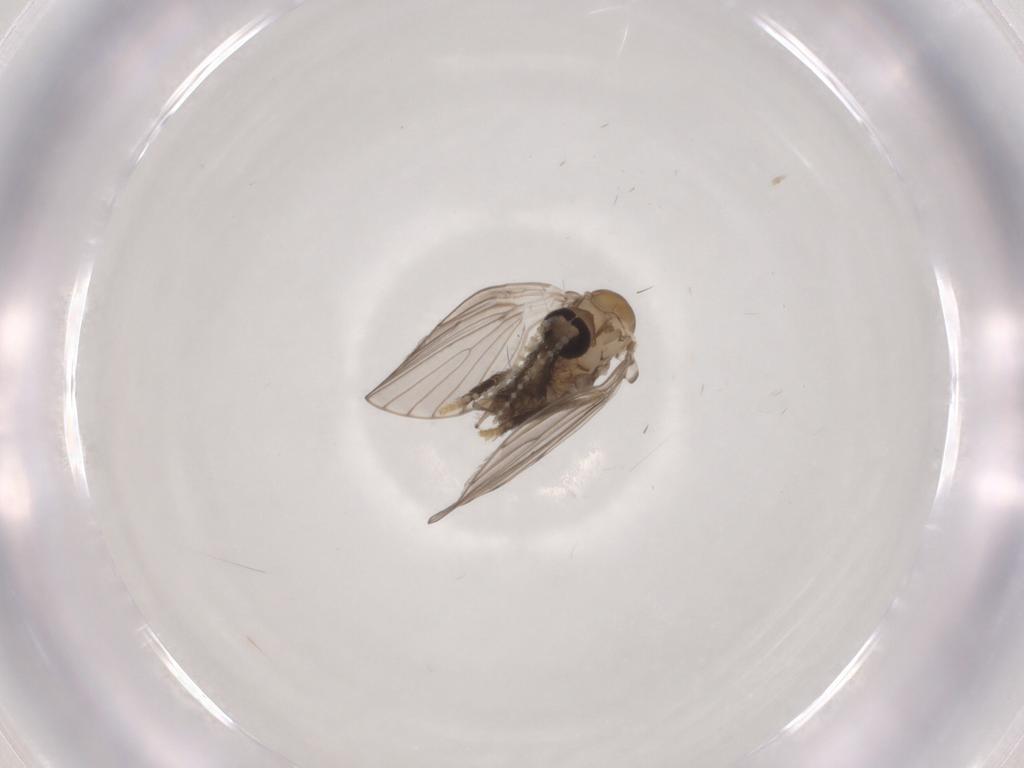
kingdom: Animalia
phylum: Arthropoda
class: Insecta
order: Diptera
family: Psychodidae
